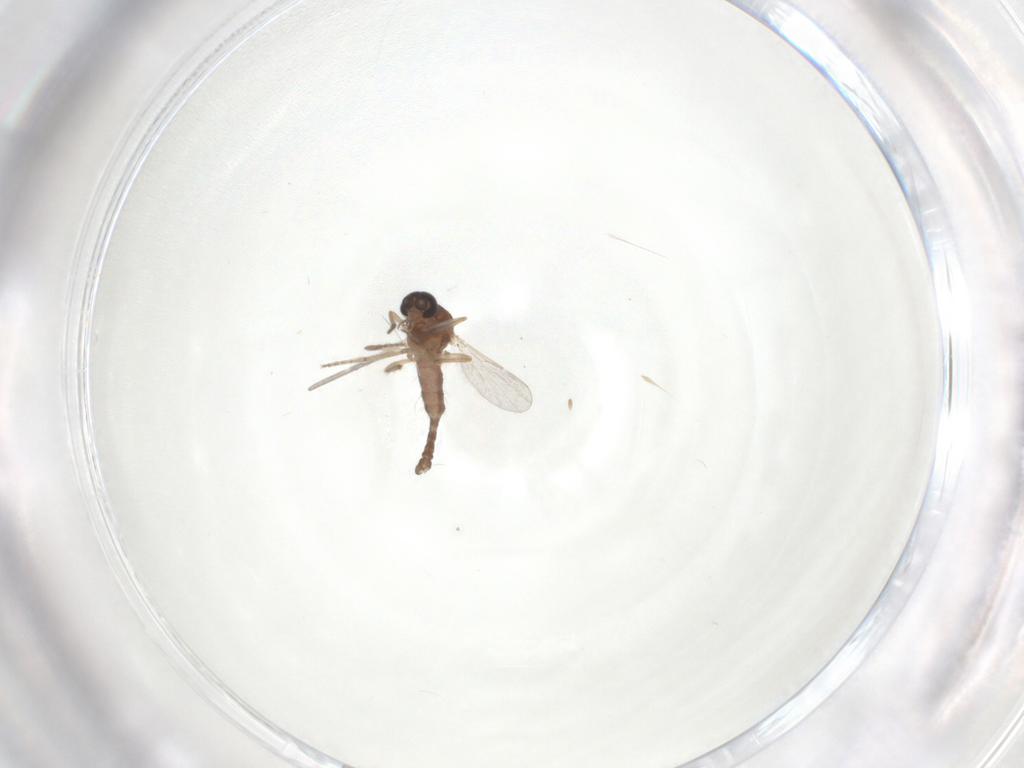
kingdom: Animalia
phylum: Arthropoda
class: Insecta
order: Diptera
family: Ceratopogonidae
